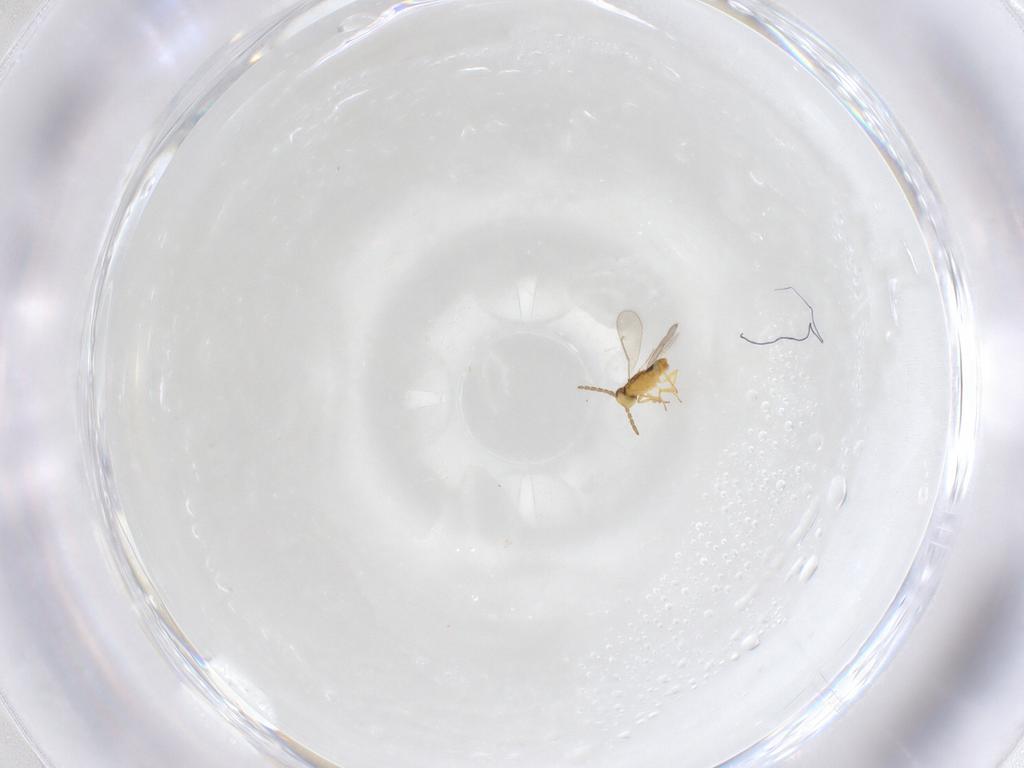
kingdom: Animalia
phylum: Arthropoda
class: Insecta
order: Hymenoptera
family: Aphelinidae
